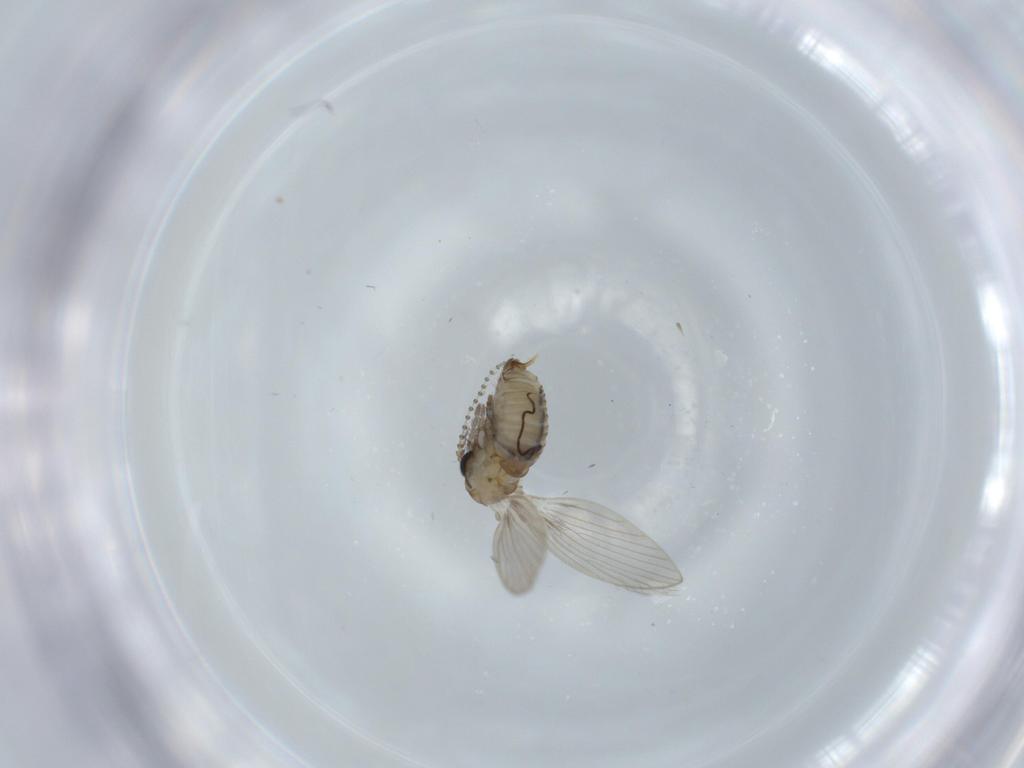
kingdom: Animalia
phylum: Arthropoda
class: Insecta
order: Diptera
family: Psychodidae
